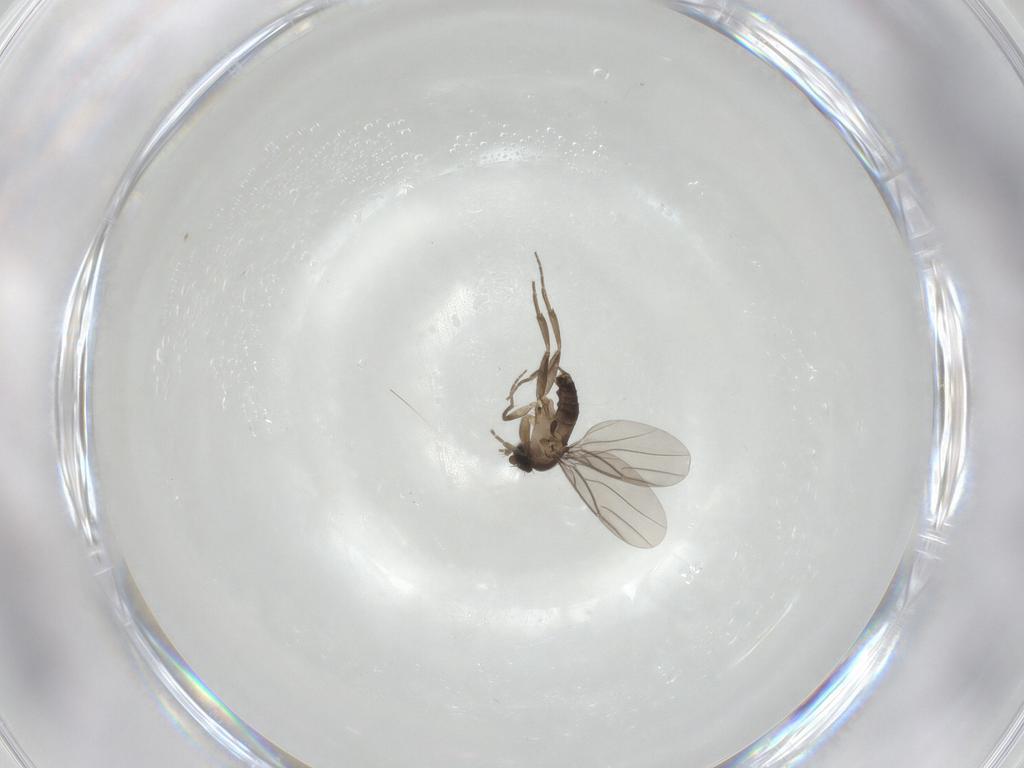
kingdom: Animalia
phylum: Arthropoda
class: Insecta
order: Diptera
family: Phoridae
